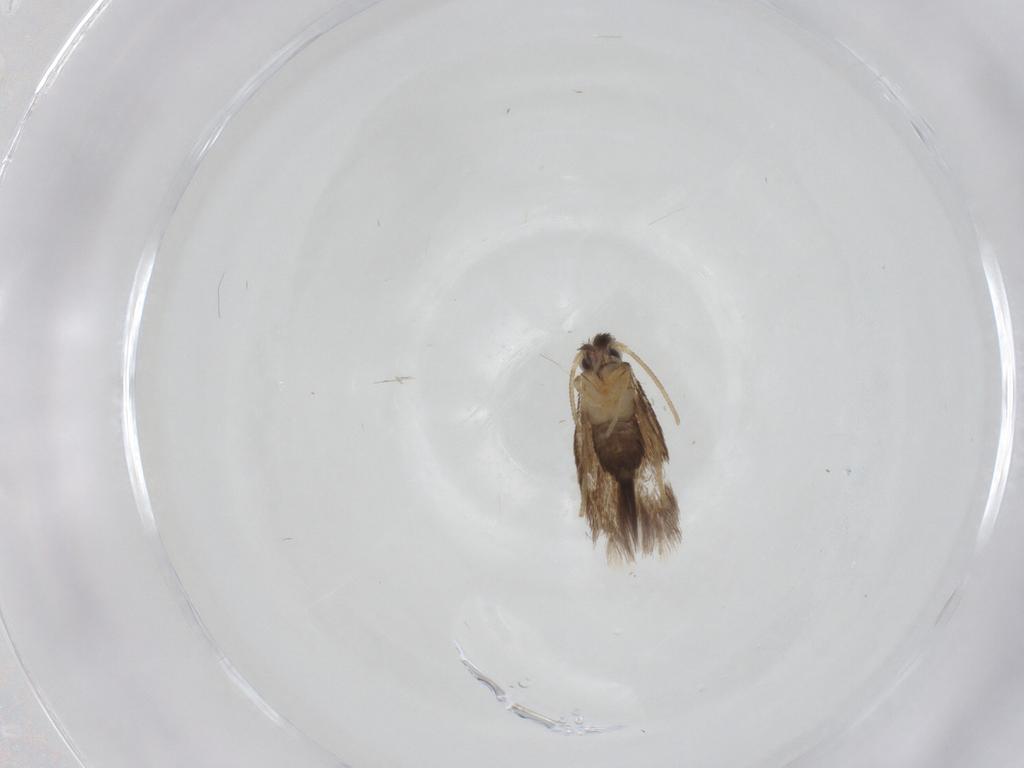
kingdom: Animalia
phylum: Arthropoda
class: Insecta
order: Lepidoptera
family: Nepticulidae
